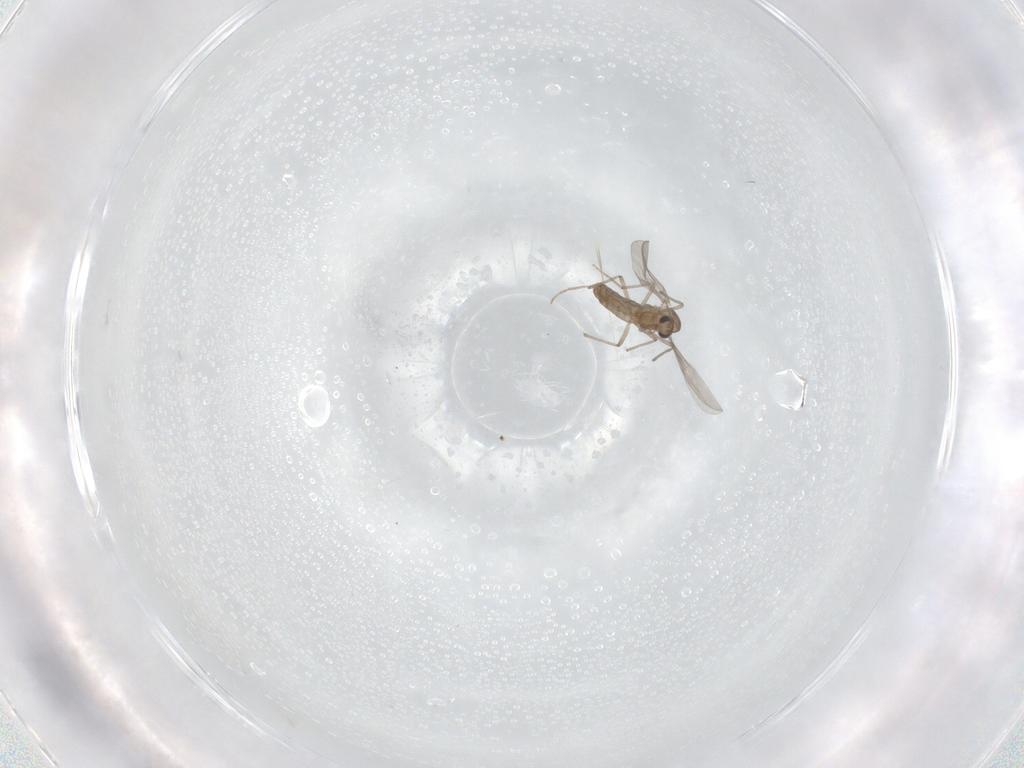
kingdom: Animalia
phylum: Arthropoda
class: Insecta
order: Diptera
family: Chironomidae
